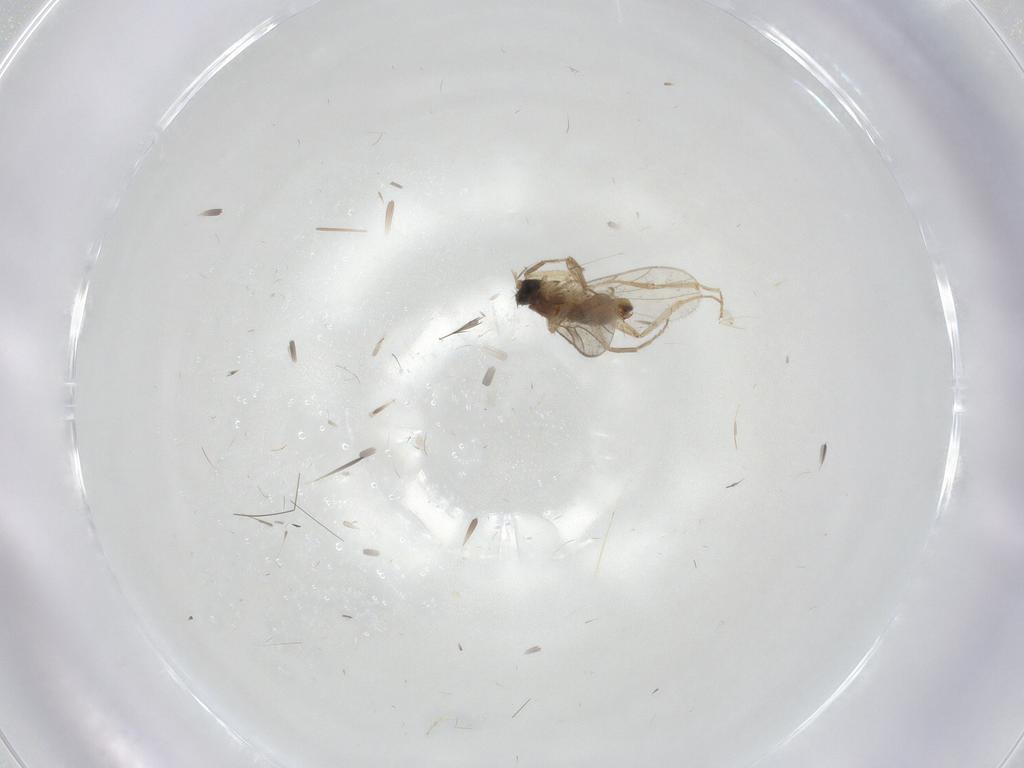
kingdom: Animalia
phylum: Arthropoda
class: Insecta
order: Diptera
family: Hybotidae
